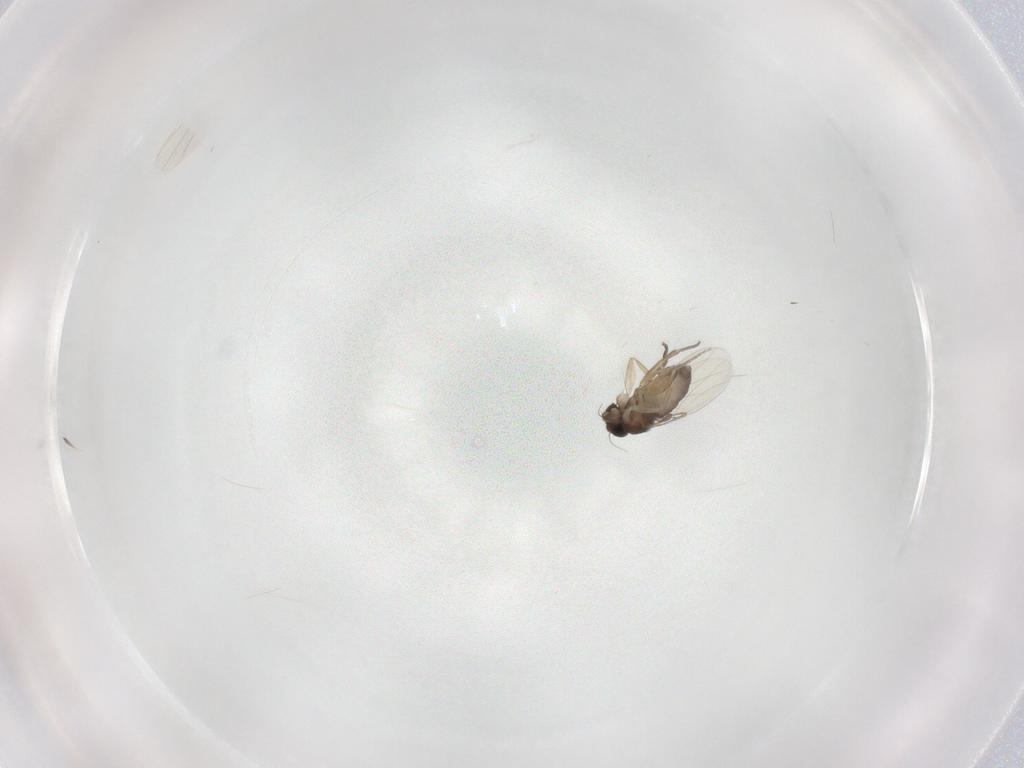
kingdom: Animalia
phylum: Arthropoda
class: Insecta
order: Diptera
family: Phoridae
